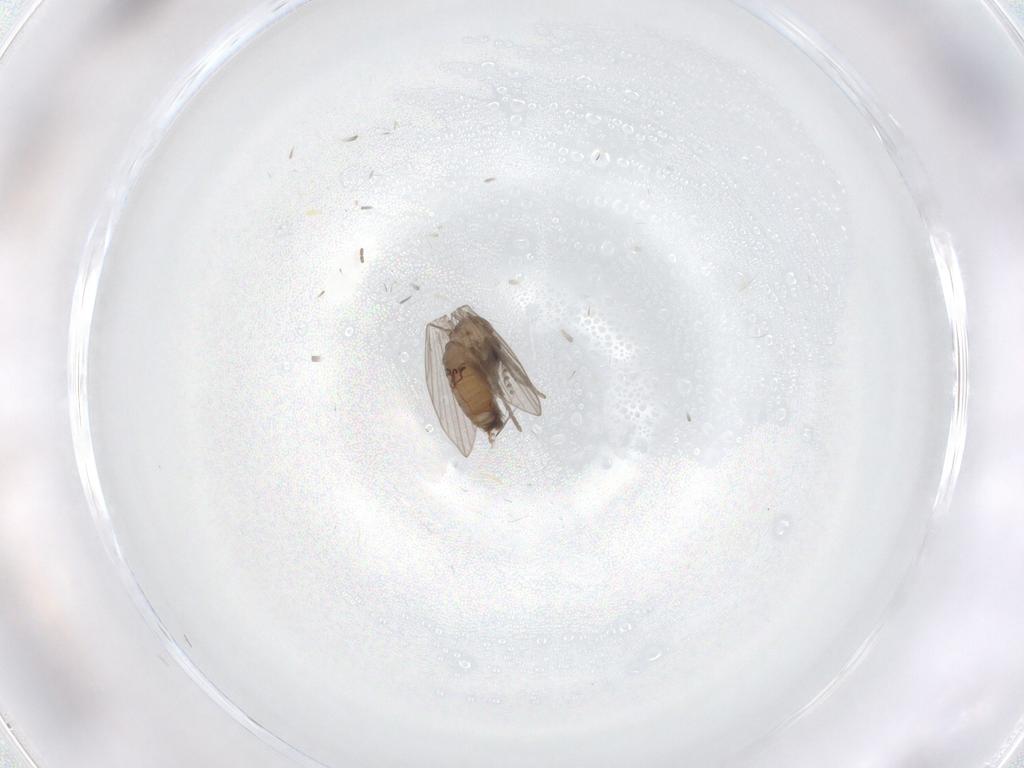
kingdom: Animalia
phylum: Arthropoda
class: Insecta
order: Diptera
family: Psychodidae
